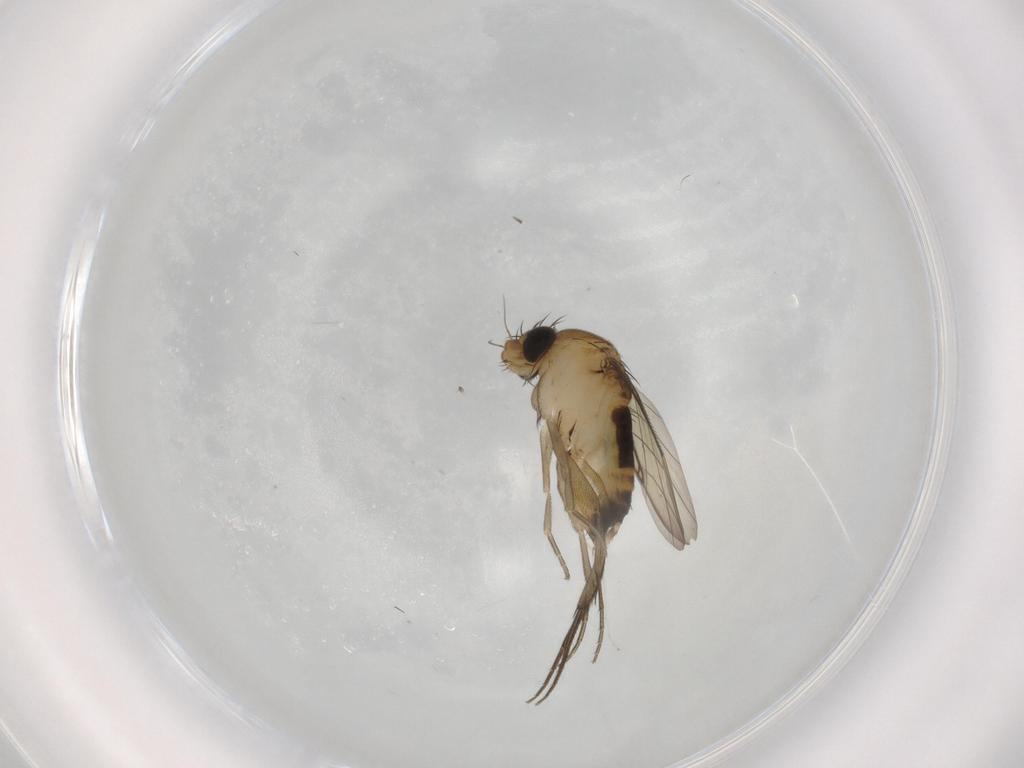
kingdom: Animalia
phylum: Arthropoda
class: Insecta
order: Diptera
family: Phoridae
